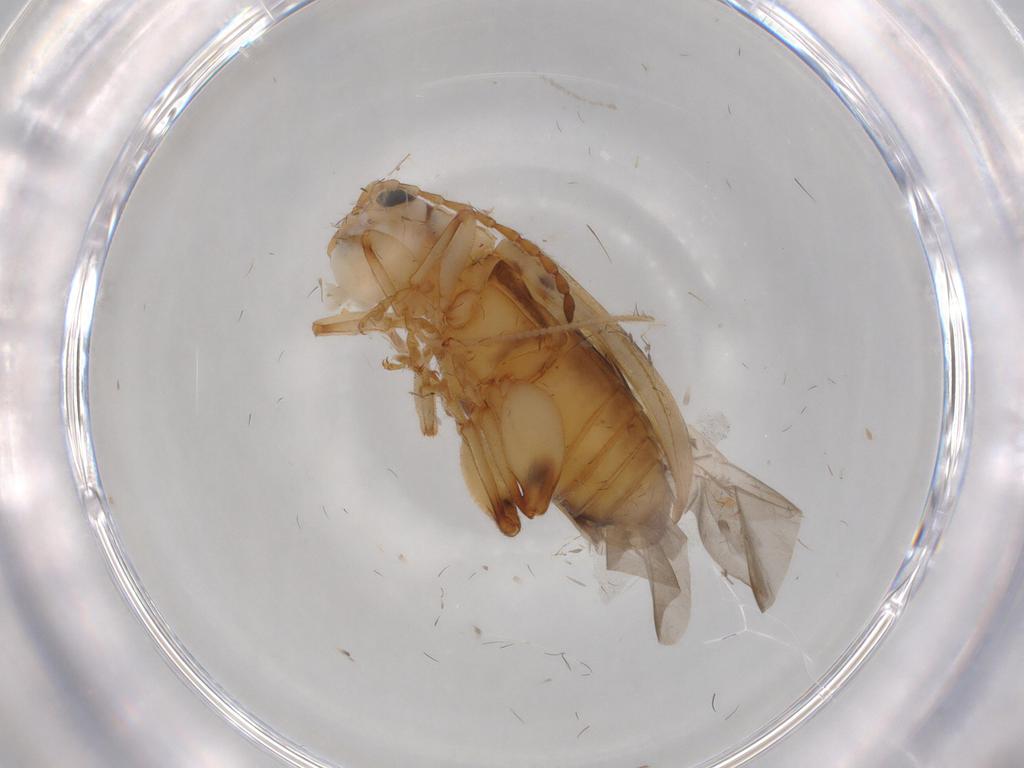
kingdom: Animalia
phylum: Arthropoda
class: Insecta
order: Coleoptera
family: Chrysomelidae
